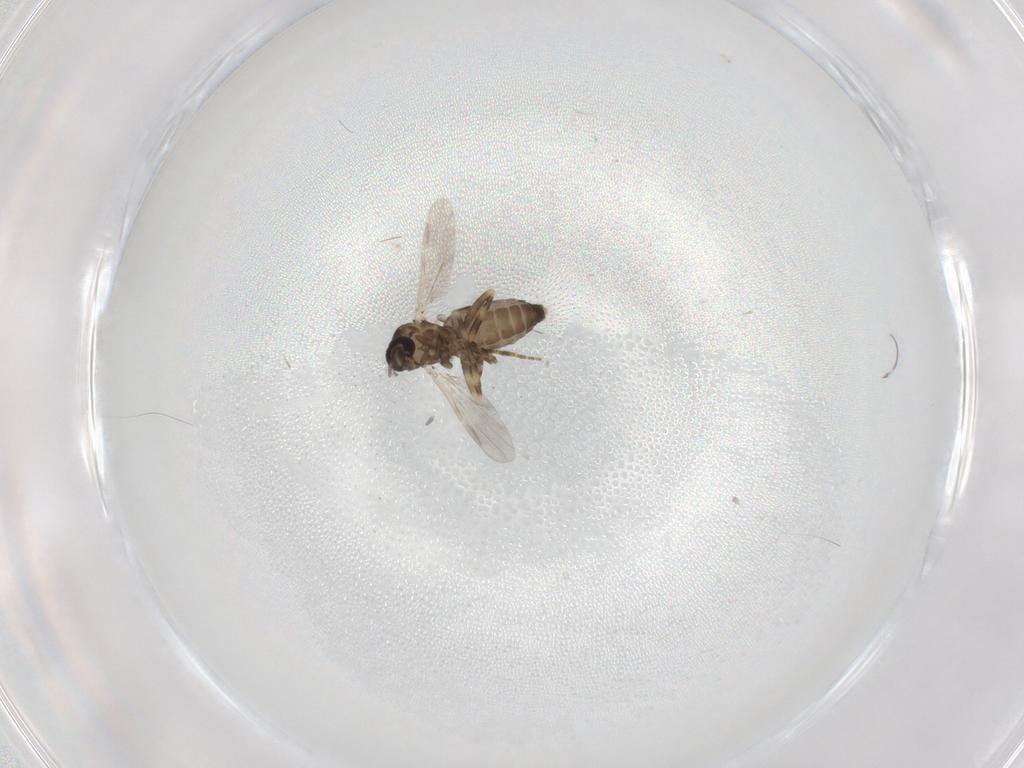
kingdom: Animalia
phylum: Arthropoda
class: Insecta
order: Diptera
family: Ceratopogonidae
